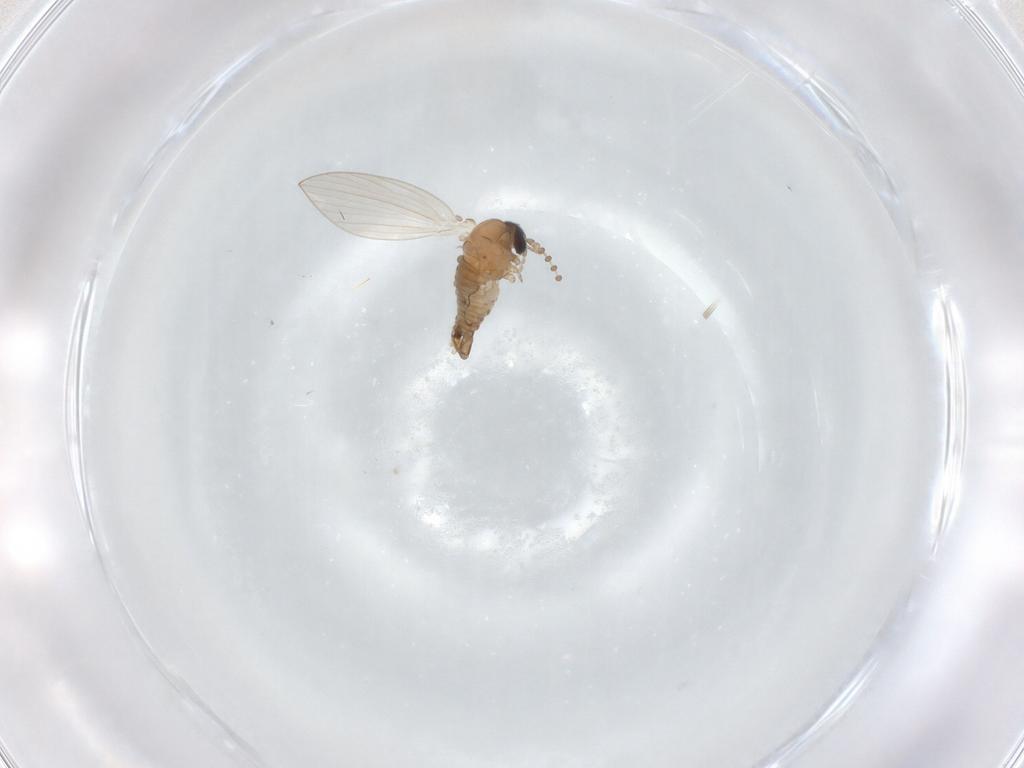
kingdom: Animalia
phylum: Arthropoda
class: Insecta
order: Diptera
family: Psychodidae
